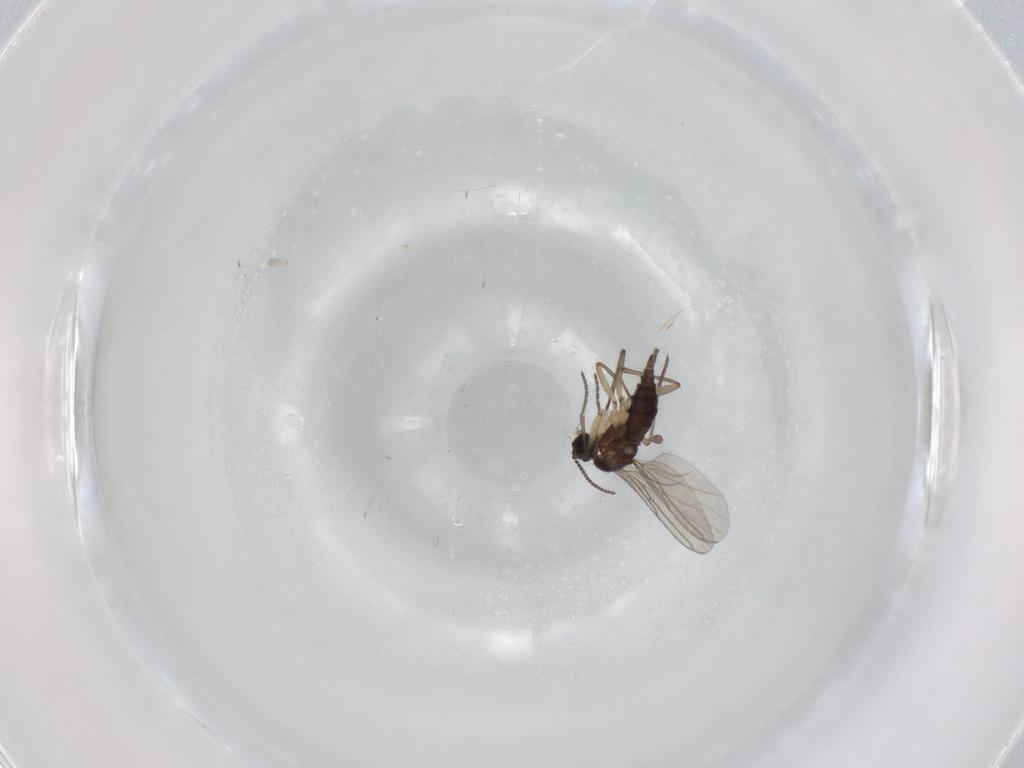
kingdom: Animalia
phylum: Arthropoda
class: Insecta
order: Diptera
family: Sciaridae
